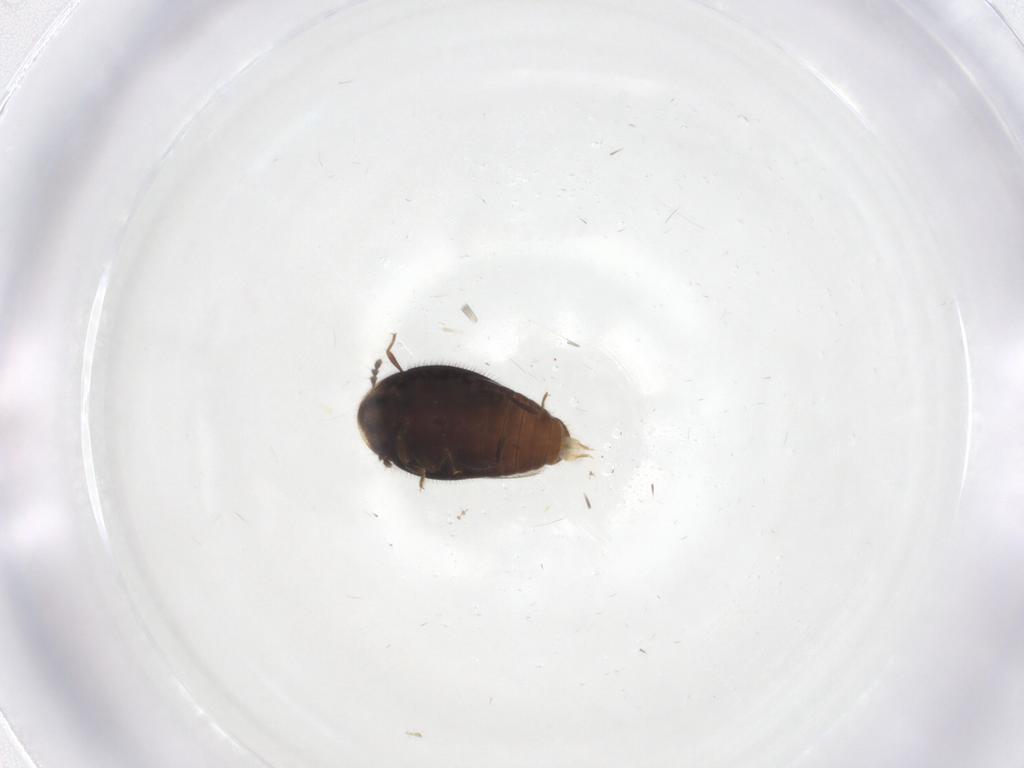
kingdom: Animalia
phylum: Arthropoda
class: Insecta
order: Coleoptera
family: Corylophidae
